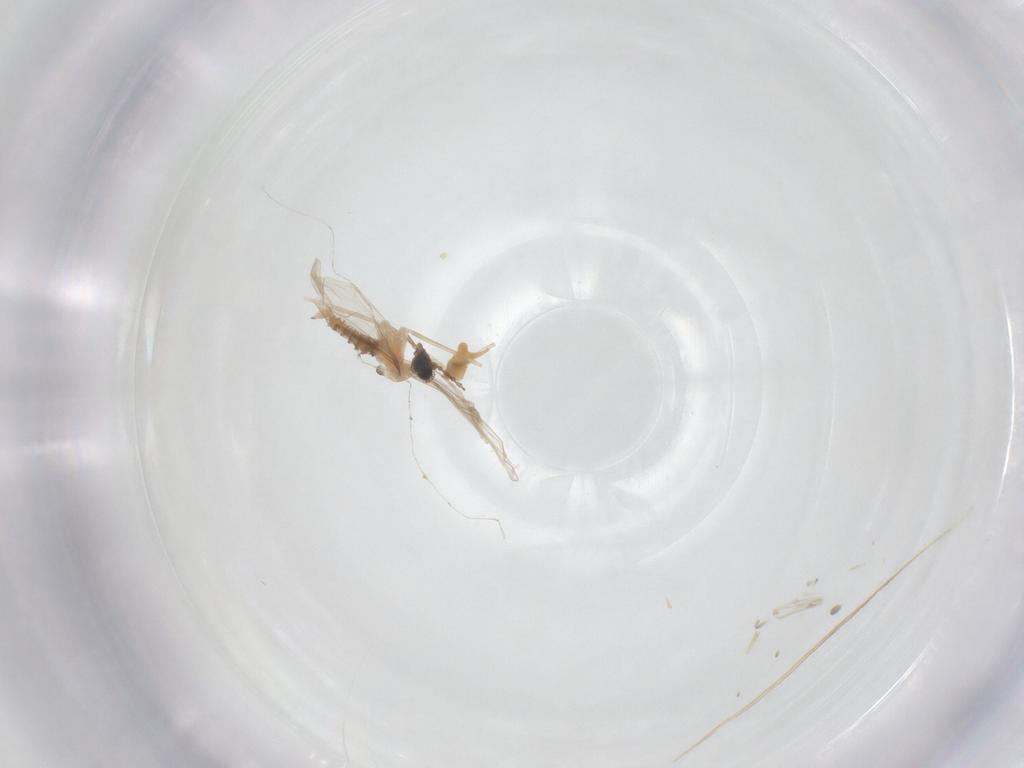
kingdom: Animalia
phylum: Arthropoda
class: Insecta
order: Diptera
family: Cecidomyiidae
